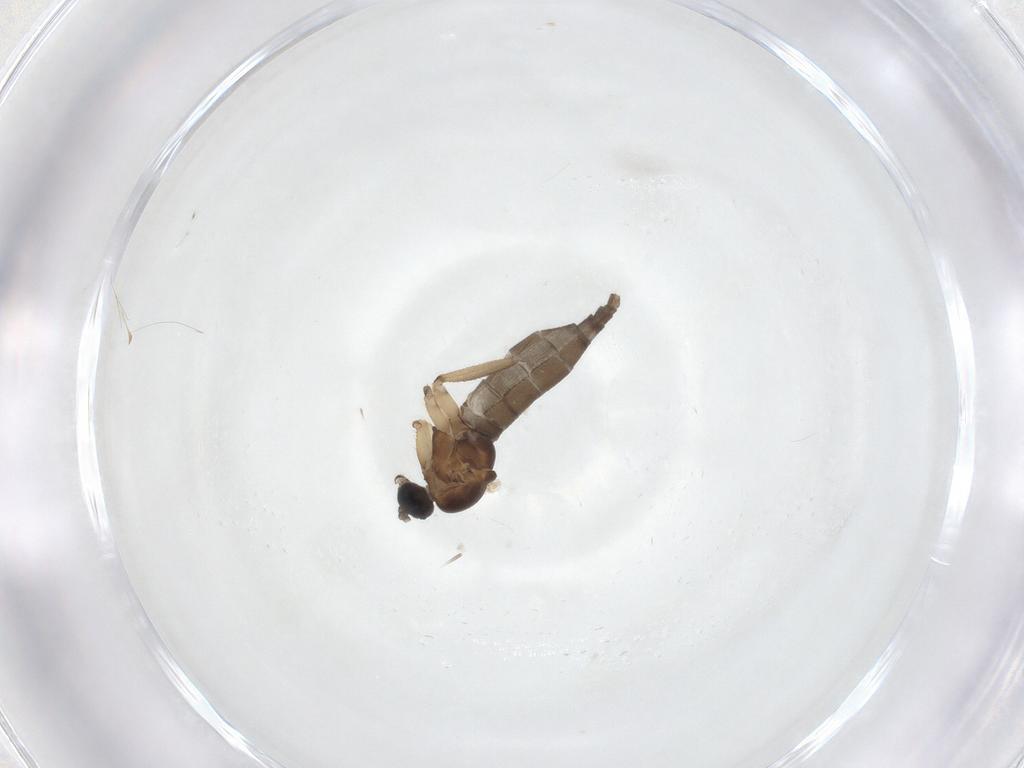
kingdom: Animalia
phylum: Arthropoda
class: Insecta
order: Diptera
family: Sciaridae
